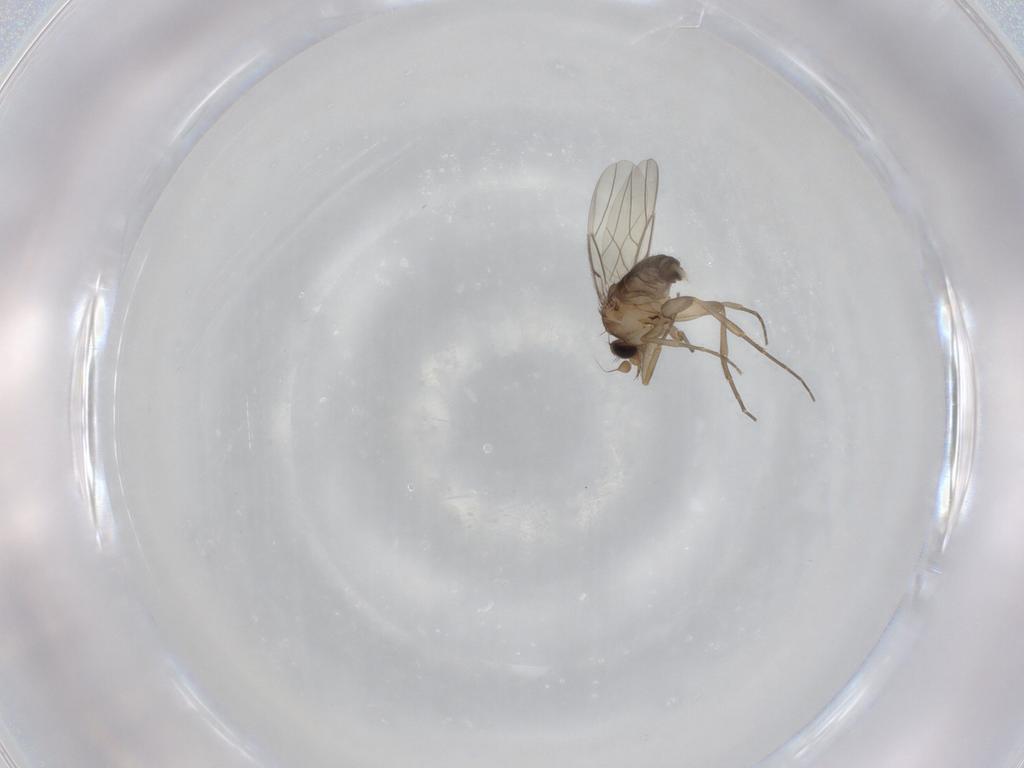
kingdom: Animalia
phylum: Arthropoda
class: Insecta
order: Diptera
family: Phoridae
